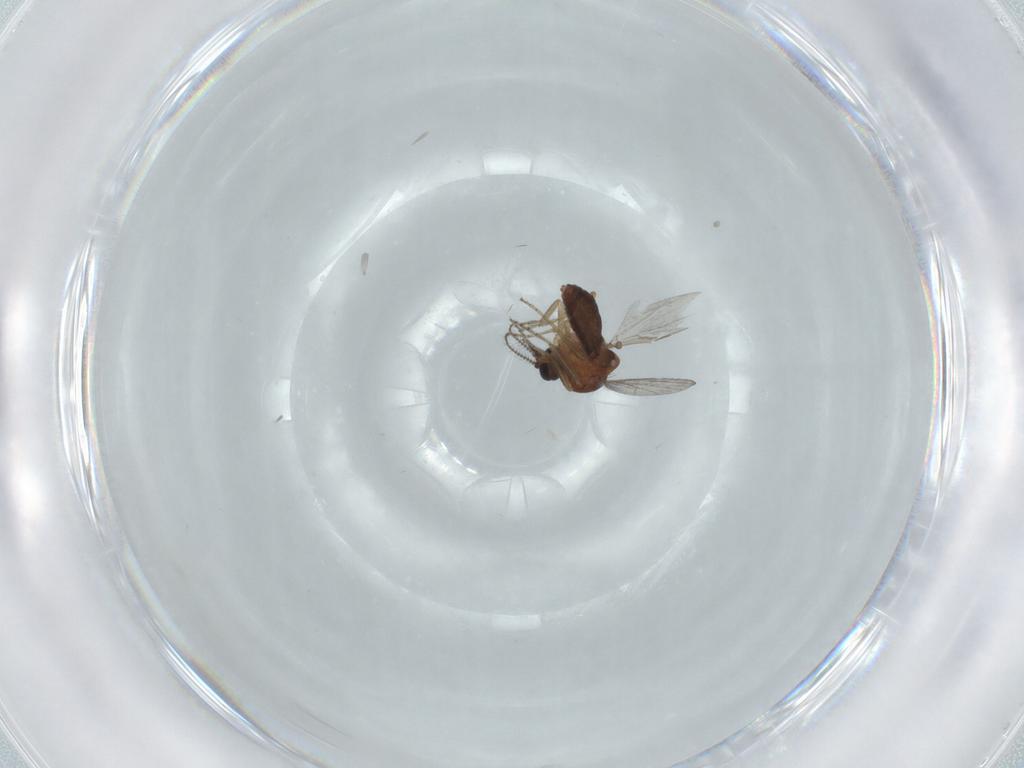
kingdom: Animalia
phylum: Arthropoda
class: Insecta
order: Diptera
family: Ceratopogonidae
